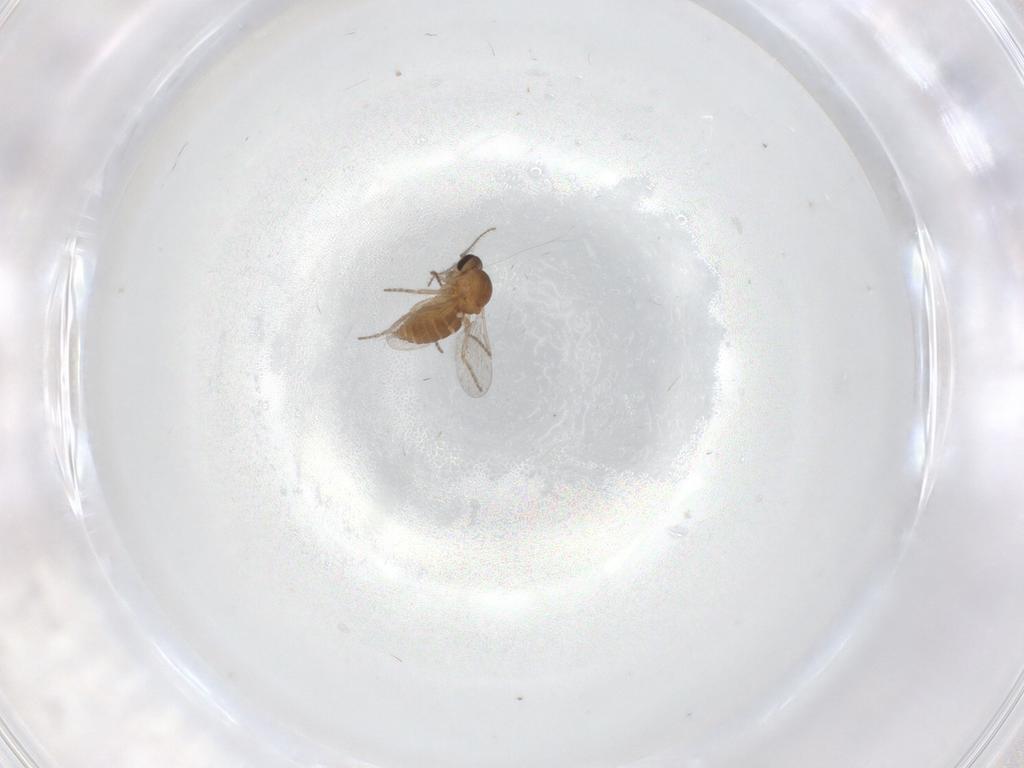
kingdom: Animalia
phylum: Arthropoda
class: Insecta
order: Diptera
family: Ceratopogonidae
